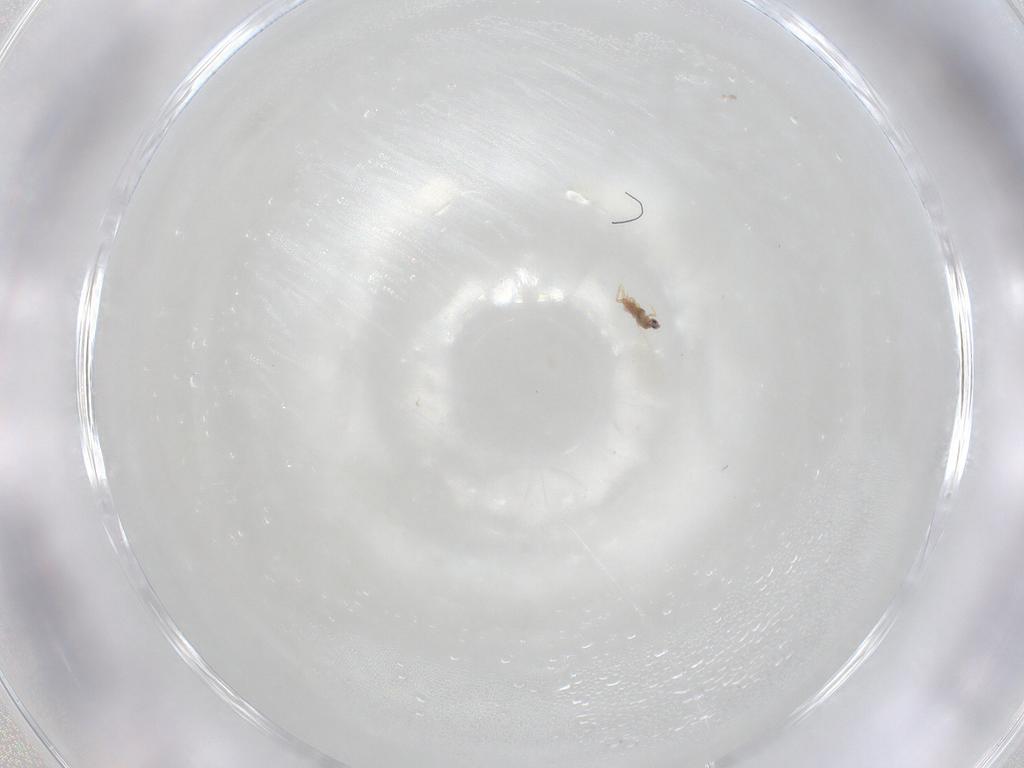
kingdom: Animalia
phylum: Arthropoda
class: Insecta
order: Hemiptera
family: Diaspididae
